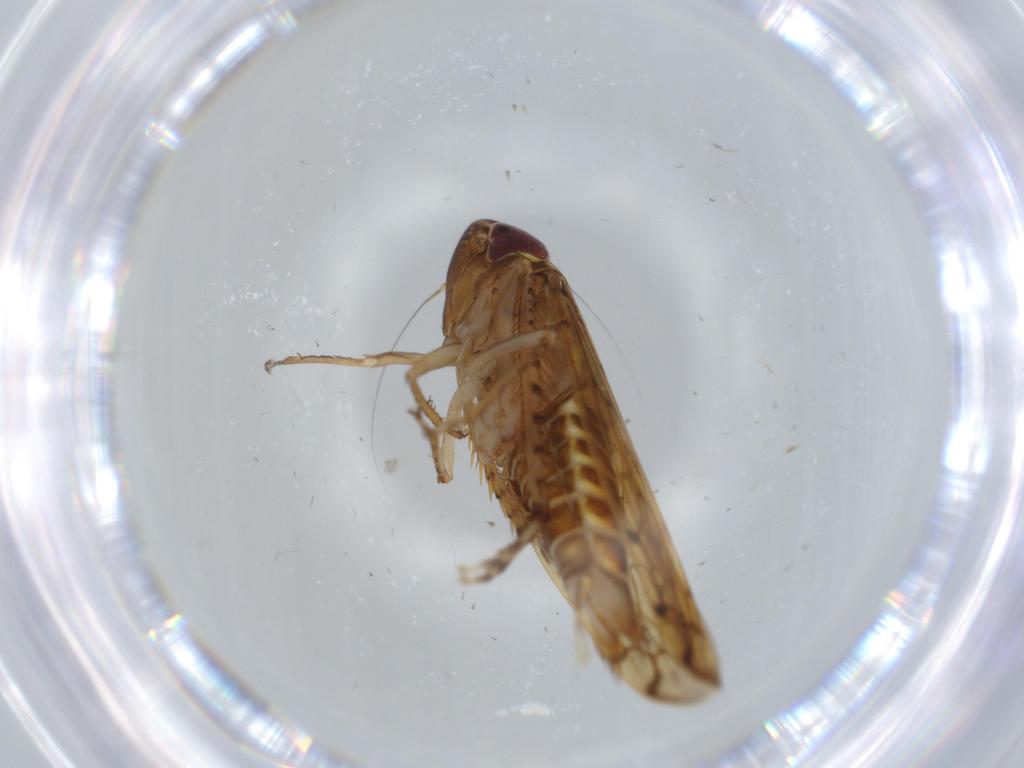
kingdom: Animalia
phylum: Arthropoda
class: Insecta
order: Hemiptera
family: Cicadellidae
